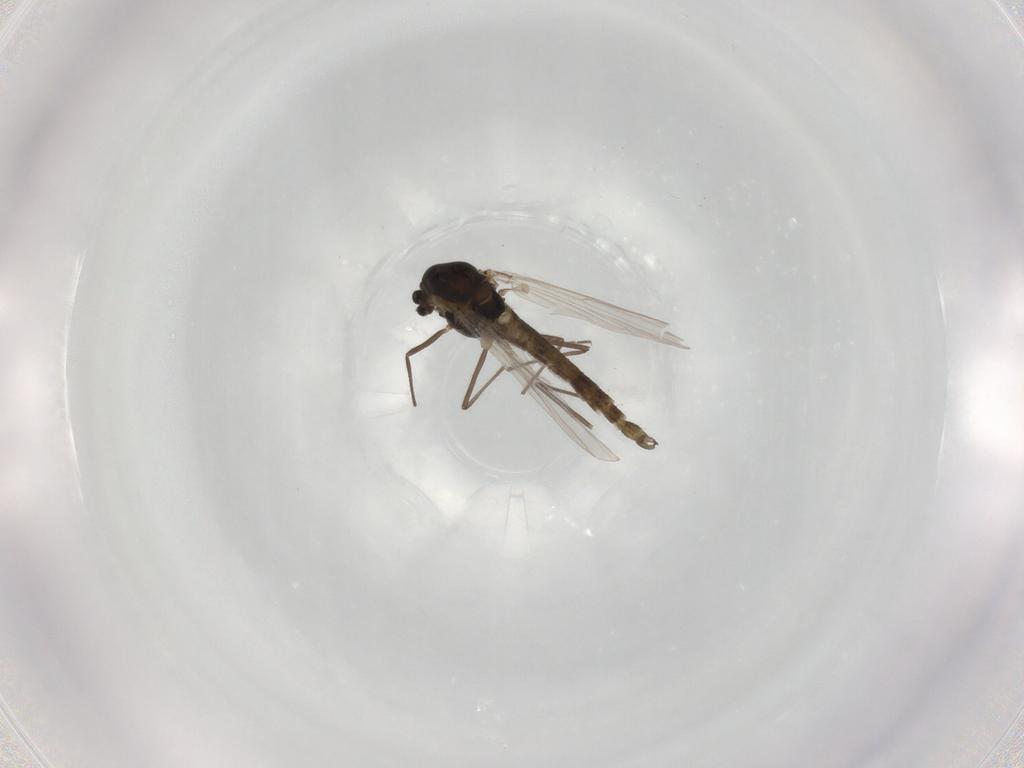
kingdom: Animalia
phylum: Arthropoda
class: Insecta
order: Diptera
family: Chironomidae
